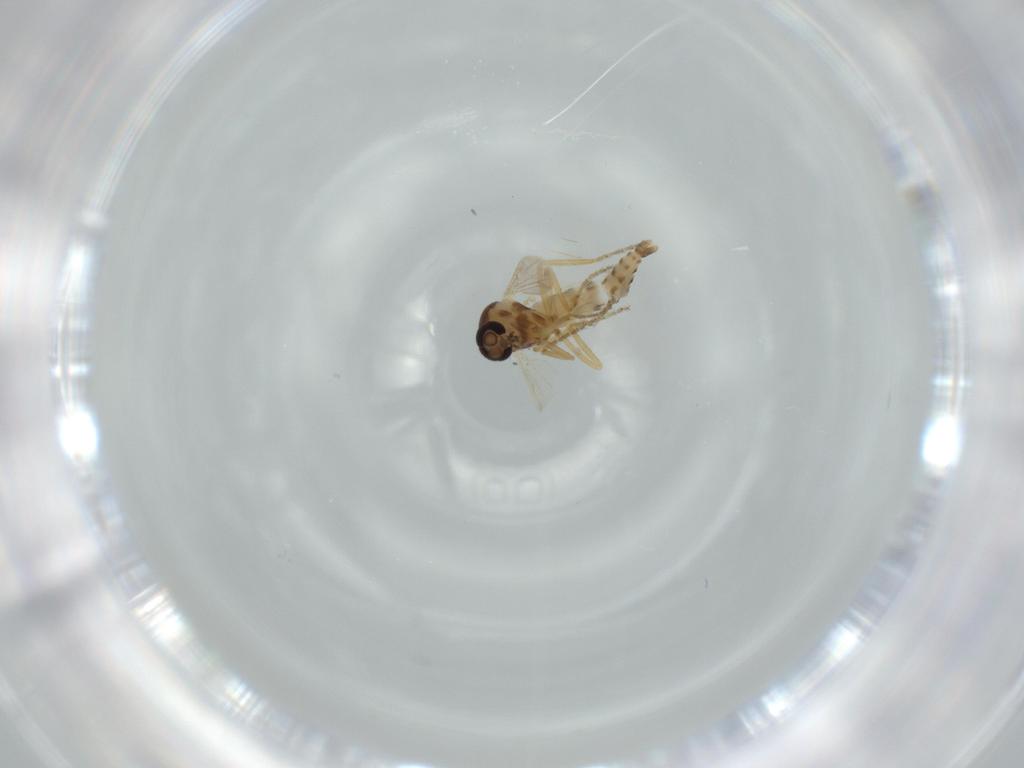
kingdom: Animalia
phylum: Arthropoda
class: Insecta
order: Diptera
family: Ceratopogonidae
